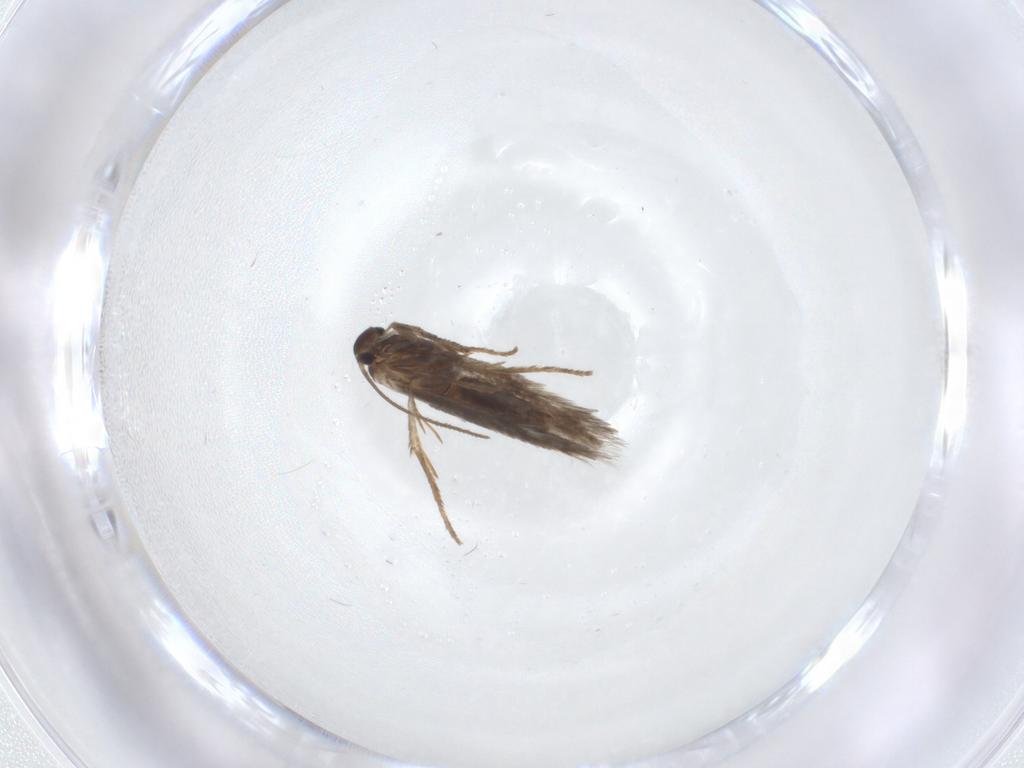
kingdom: Animalia
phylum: Arthropoda
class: Insecta
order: Lepidoptera
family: Heliozelidae
